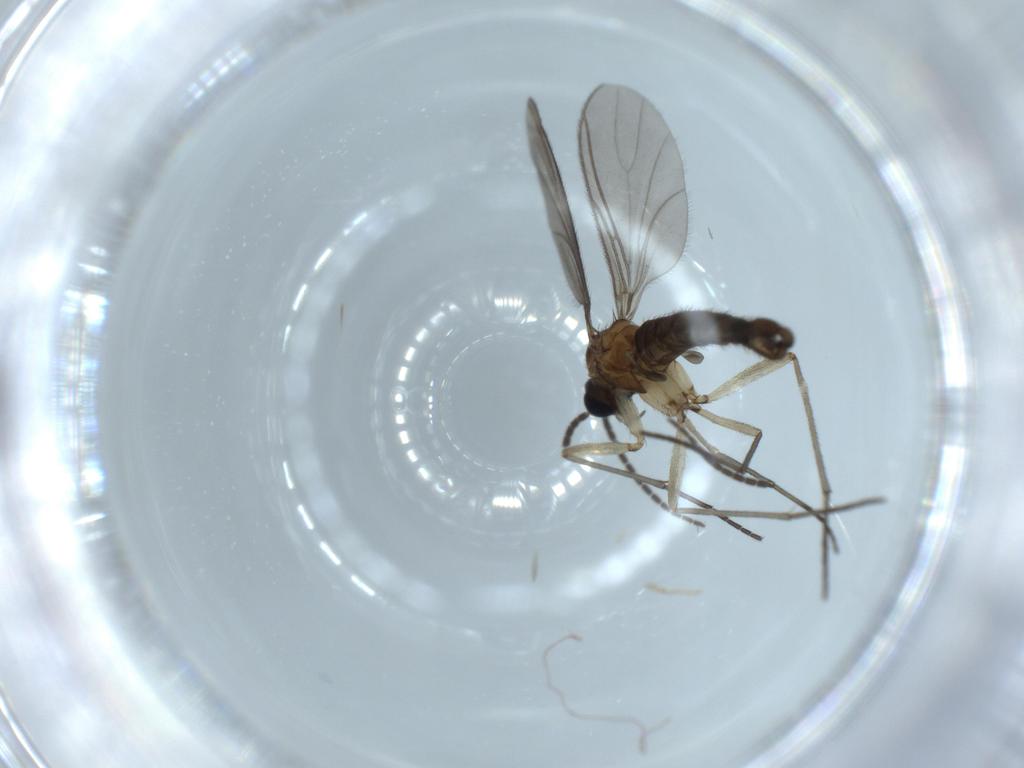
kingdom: Animalia
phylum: Arthropoda
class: Insecta
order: Diptera
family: Sciaridae
